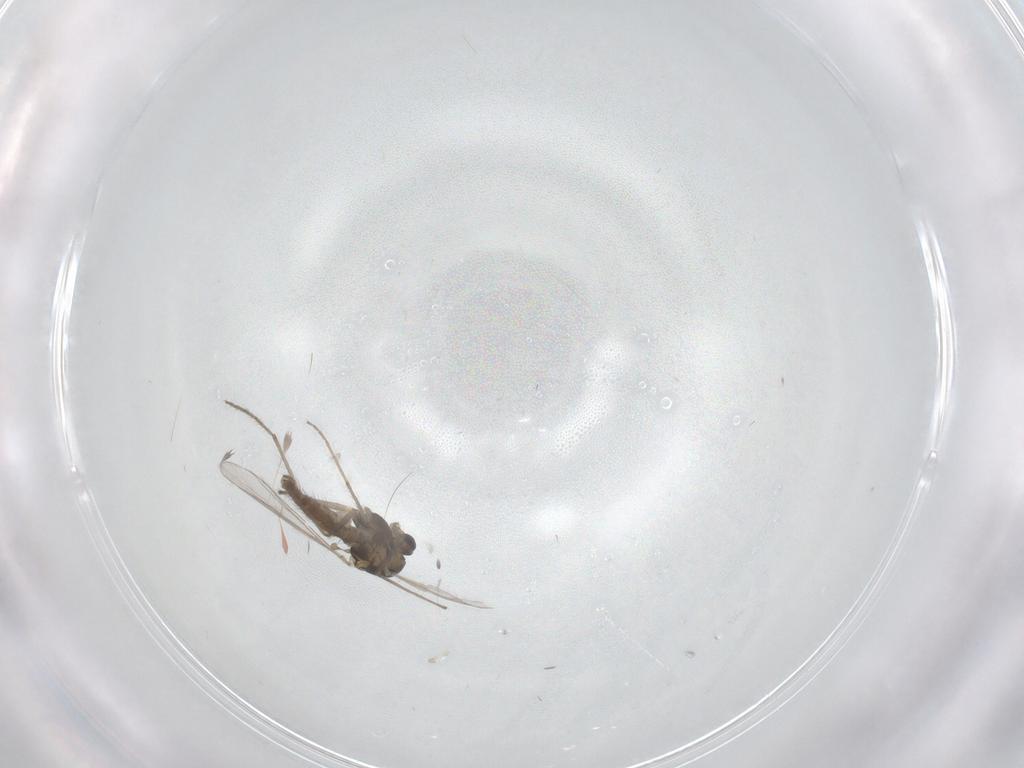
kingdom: Animalia
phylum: Arthropoda
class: Insecta
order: Diptera
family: Chironomidae
